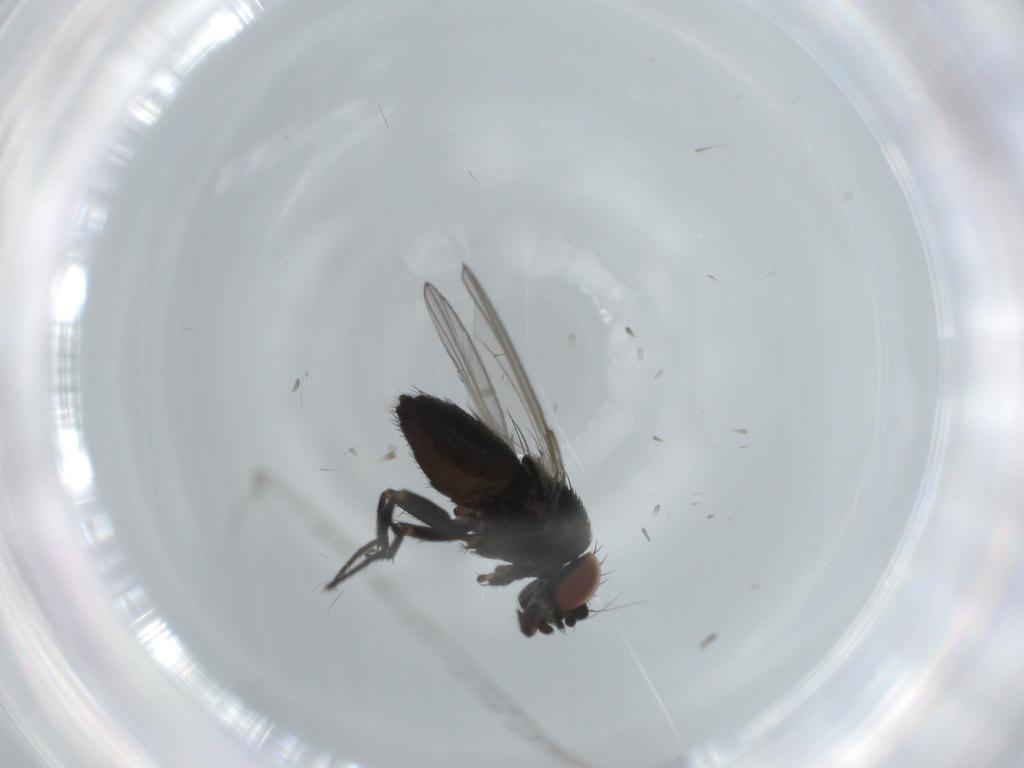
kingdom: Animalia
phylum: Arthropoda
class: Insecta
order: Diptera
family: Milichiidae
